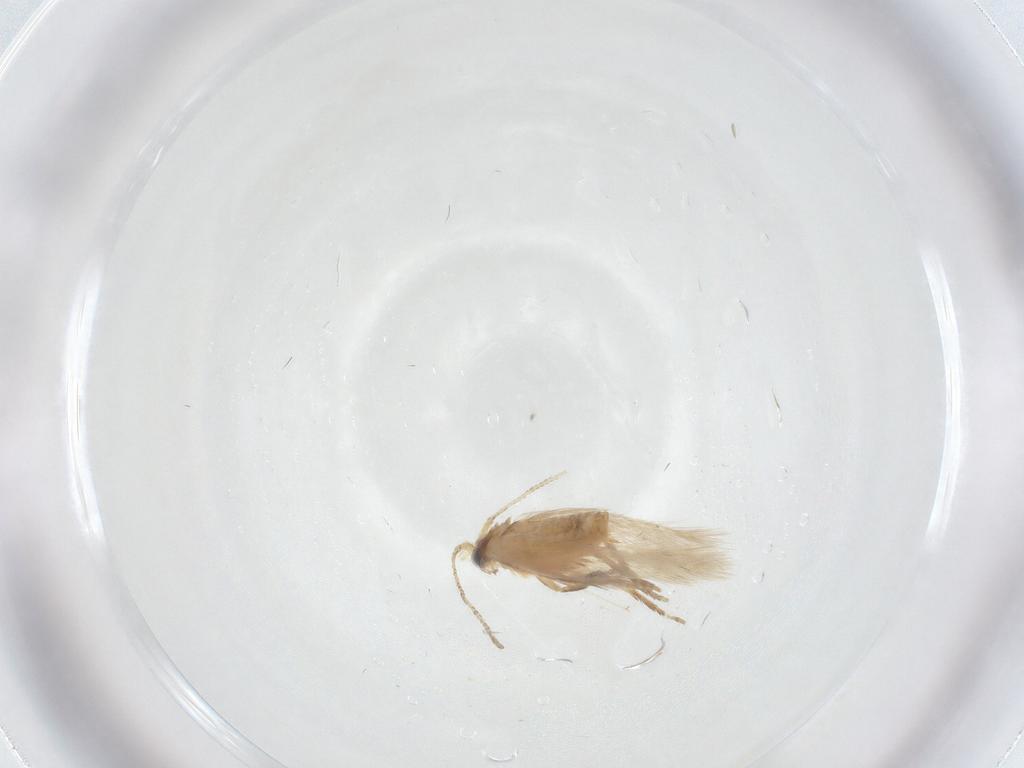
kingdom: Animalia
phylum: Arthropoda
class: Insecta
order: Lepidoptera
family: Nepticulidae
